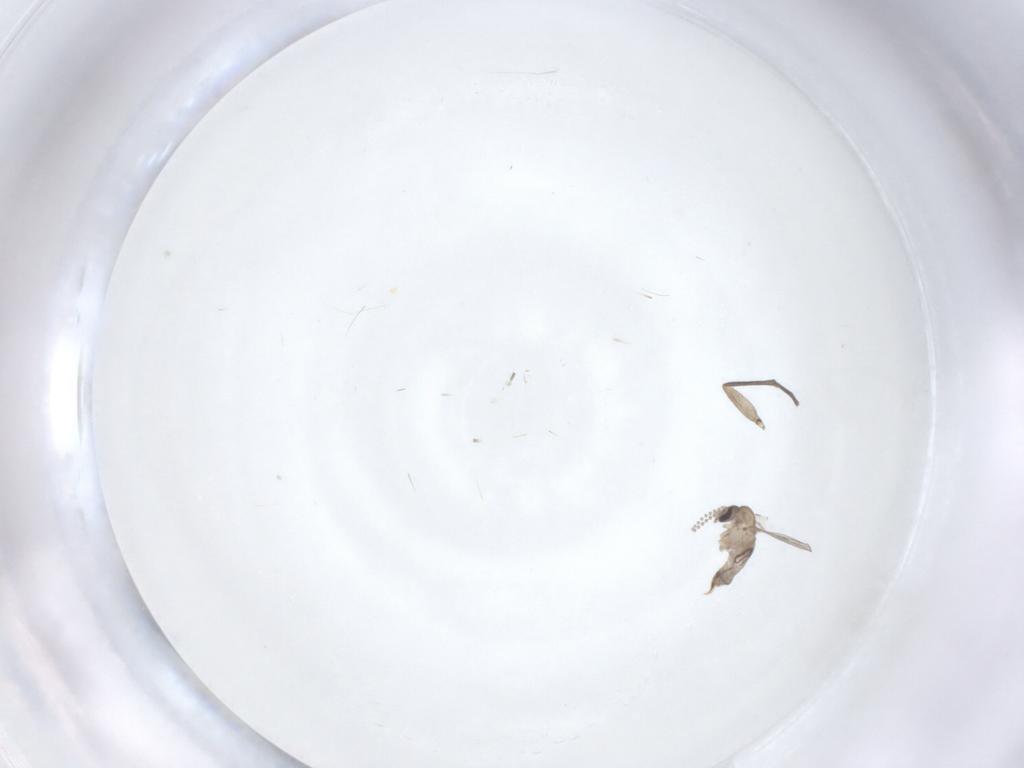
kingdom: Animalia
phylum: Arthropoda
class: Insecta
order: Diptera
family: Psychodidae
